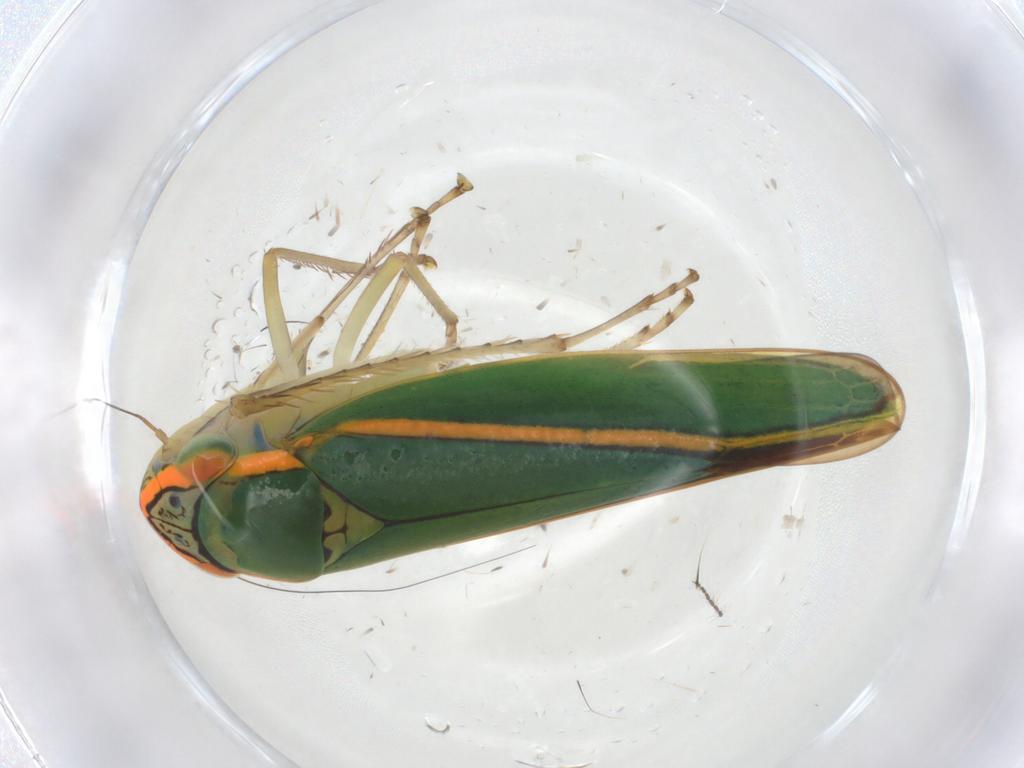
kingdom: Animalia
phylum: Arthropoda
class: Insecta
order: Hemiptera
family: Cicadellidae
